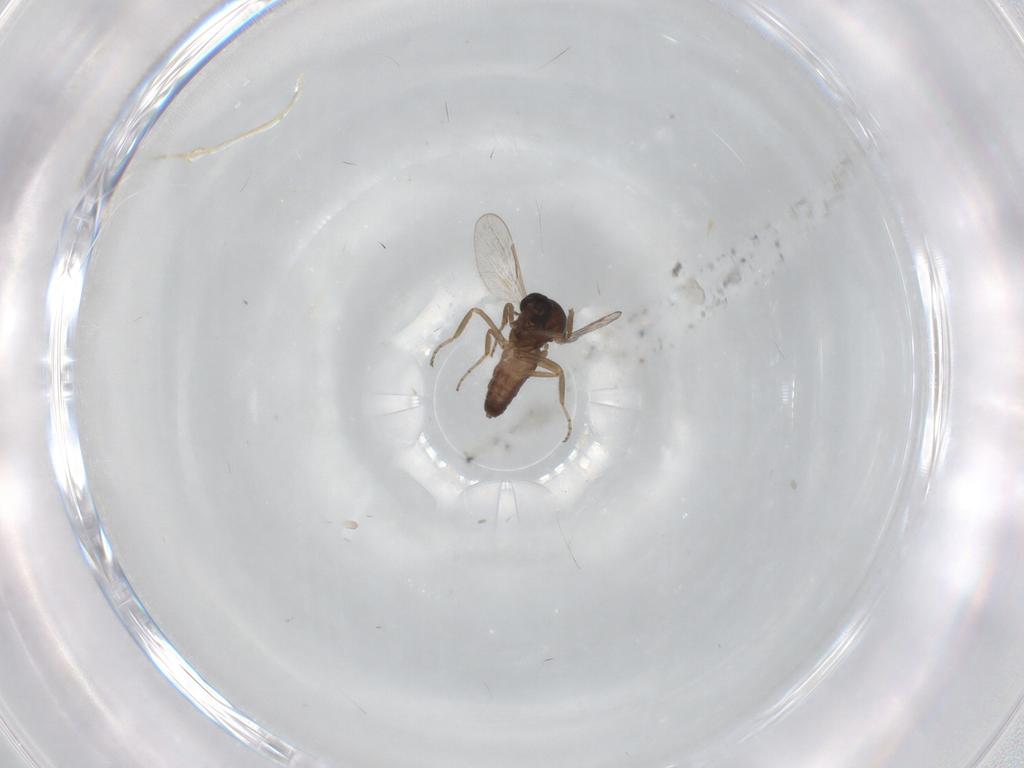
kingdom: Animalia
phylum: Arthropoda
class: Insecta
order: Diptera
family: Ceratopogonidae
